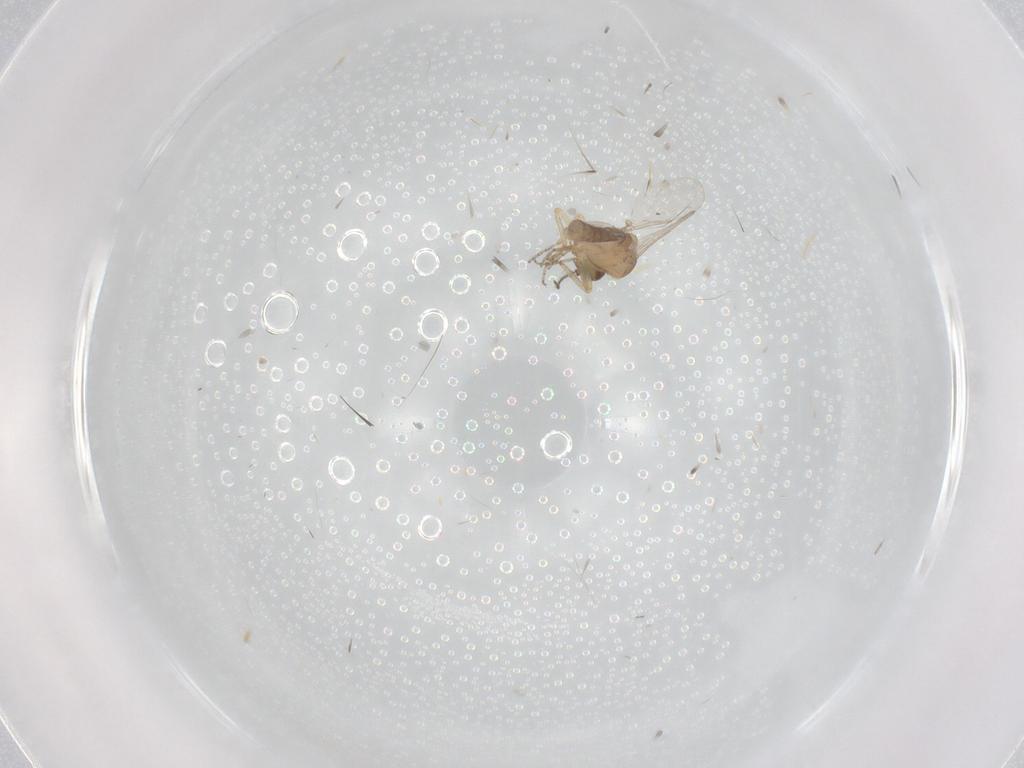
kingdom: Animalia
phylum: Arthropoda
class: Insecta
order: Diptera
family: Ceratopogonidae
